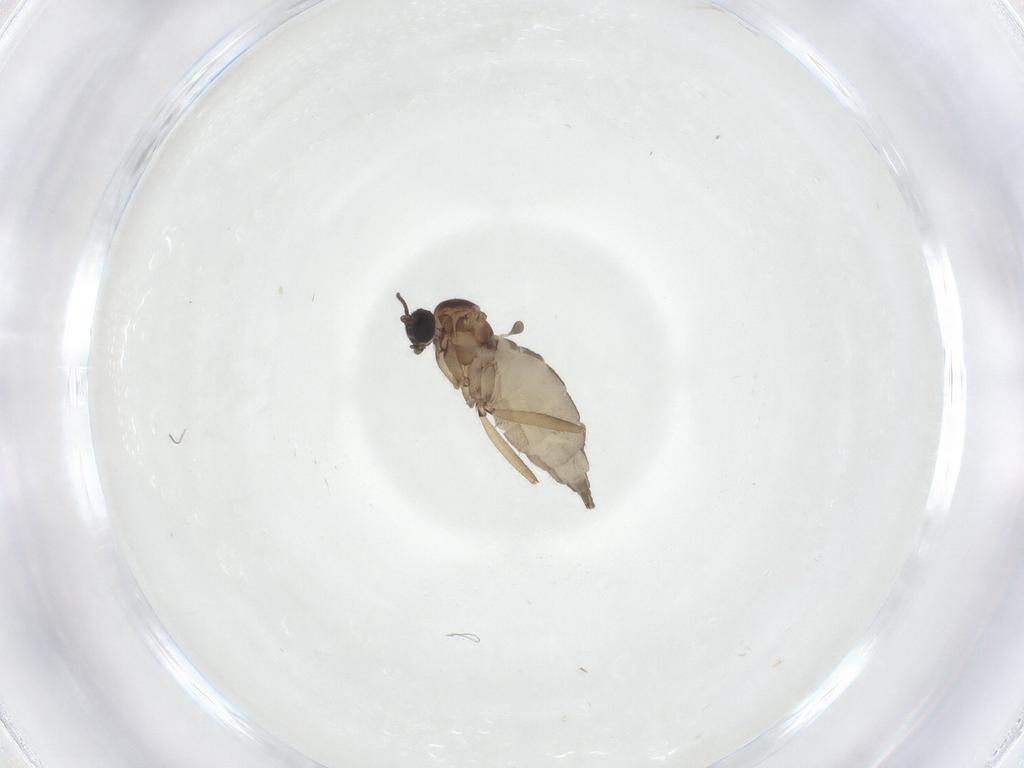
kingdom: Animalia
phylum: Arthropoda
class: Insecta
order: Diptera
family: Sciaridae
